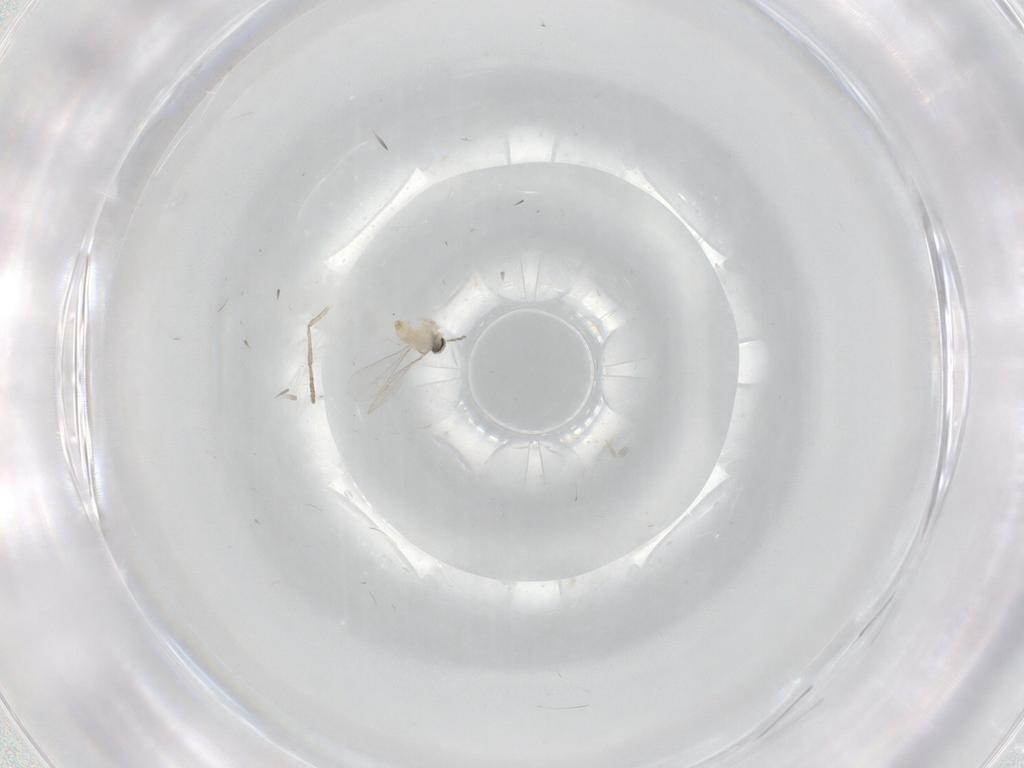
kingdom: Animalia
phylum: Arthropoda
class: Insecta
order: Diptera
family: Cecidomyiidae
